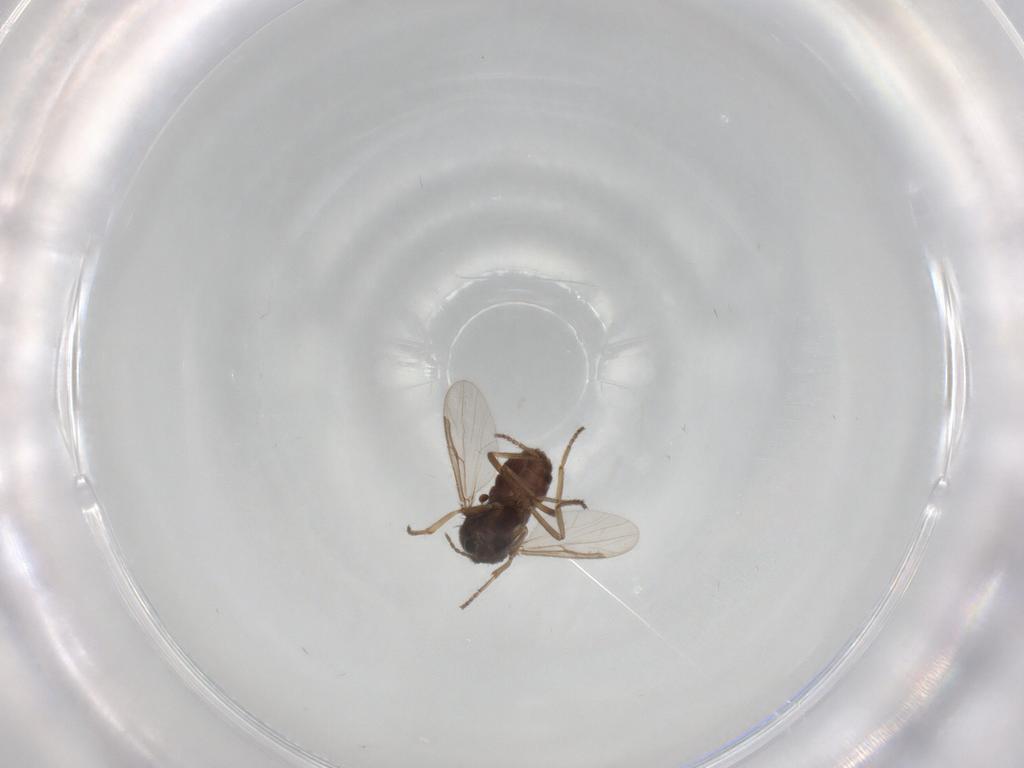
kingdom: Animalia
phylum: Arthropoda
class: Insecta
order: Diptera
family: Ceratopogonidae
